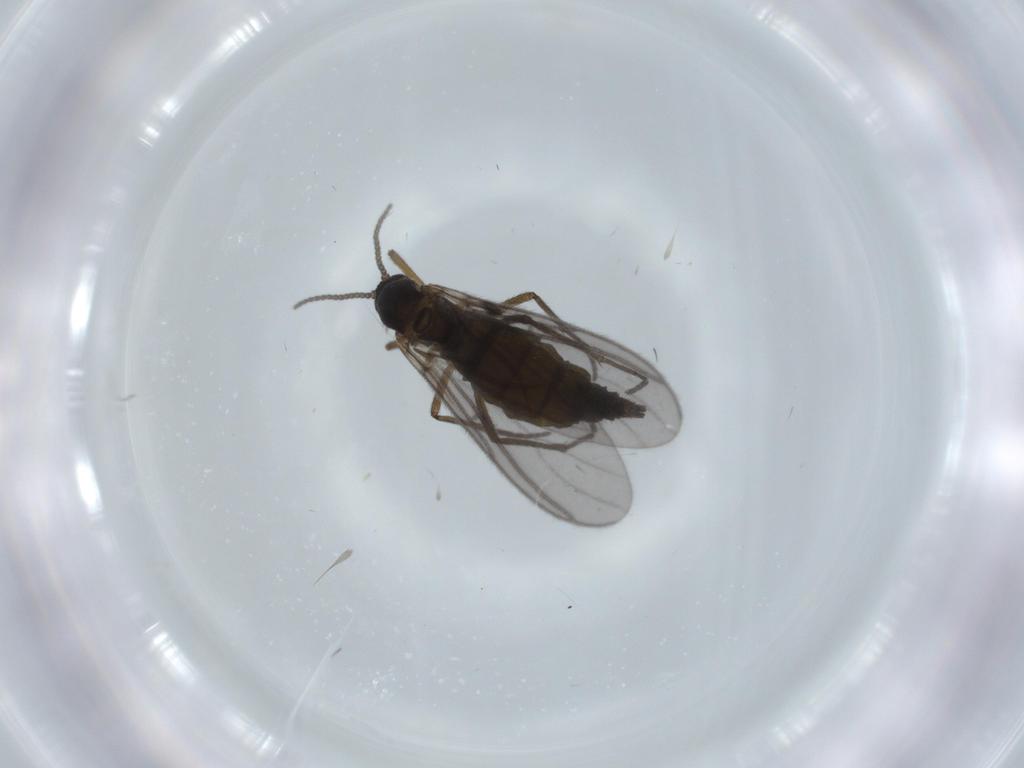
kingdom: Animalia
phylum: Arthropoda
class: Insecta
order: Diptera
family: Sciaridae
